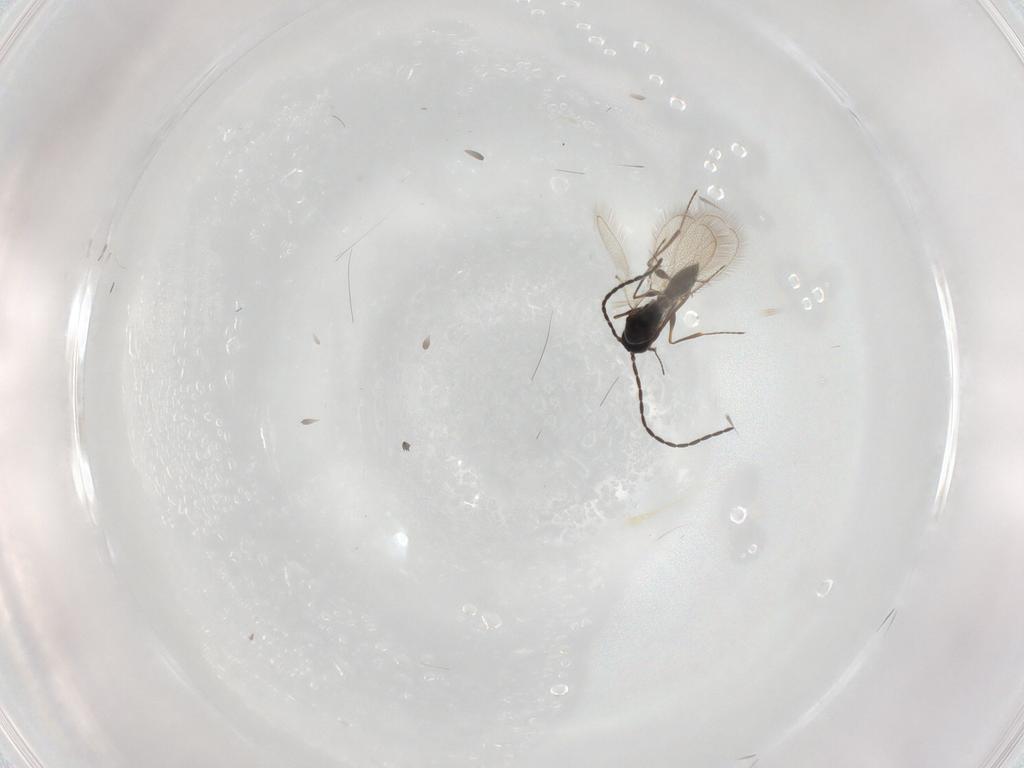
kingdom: Animalia
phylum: Arthropoda
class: Insecta
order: Hymenoptera
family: Figitidae
